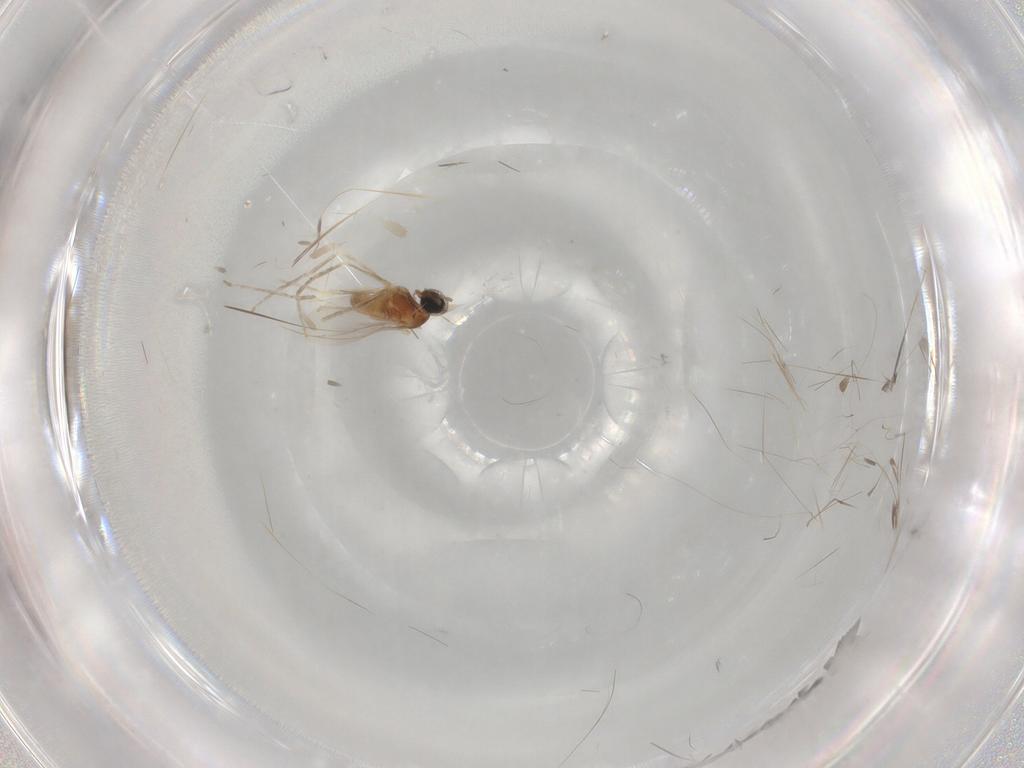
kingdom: Animalia
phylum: Arthropoda
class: Insecta
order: Diptera
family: Cecidomyiidae
